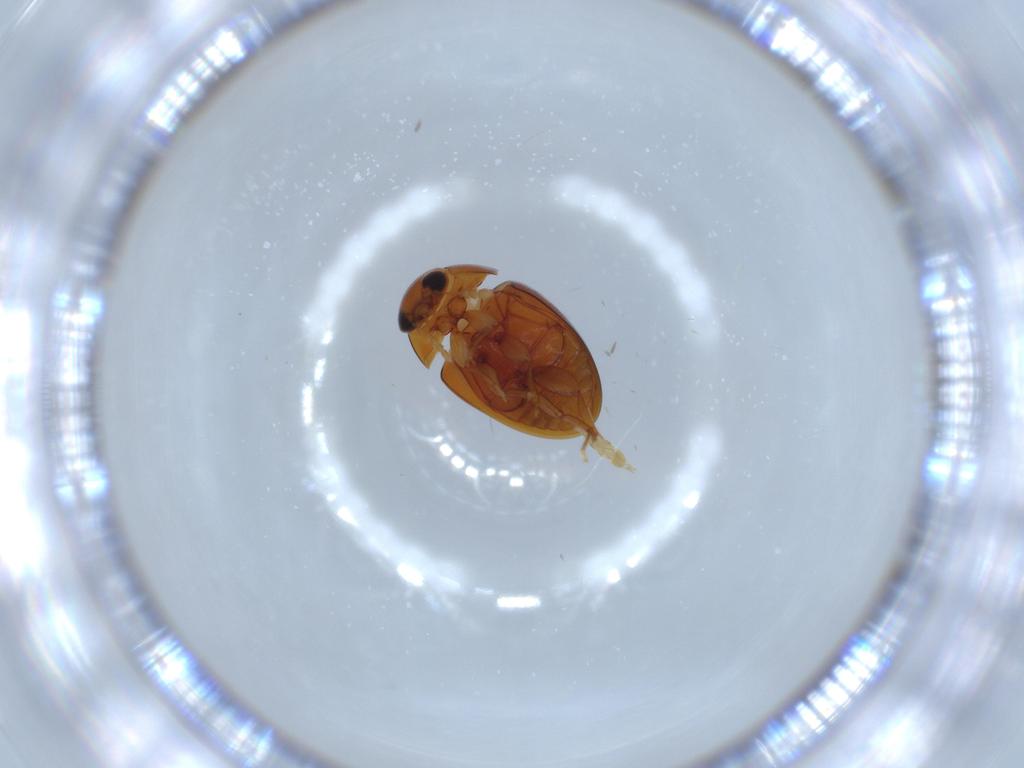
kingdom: Animalia
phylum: Arthropoda
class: Insecta
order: Coleoptera
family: Phalacridae
